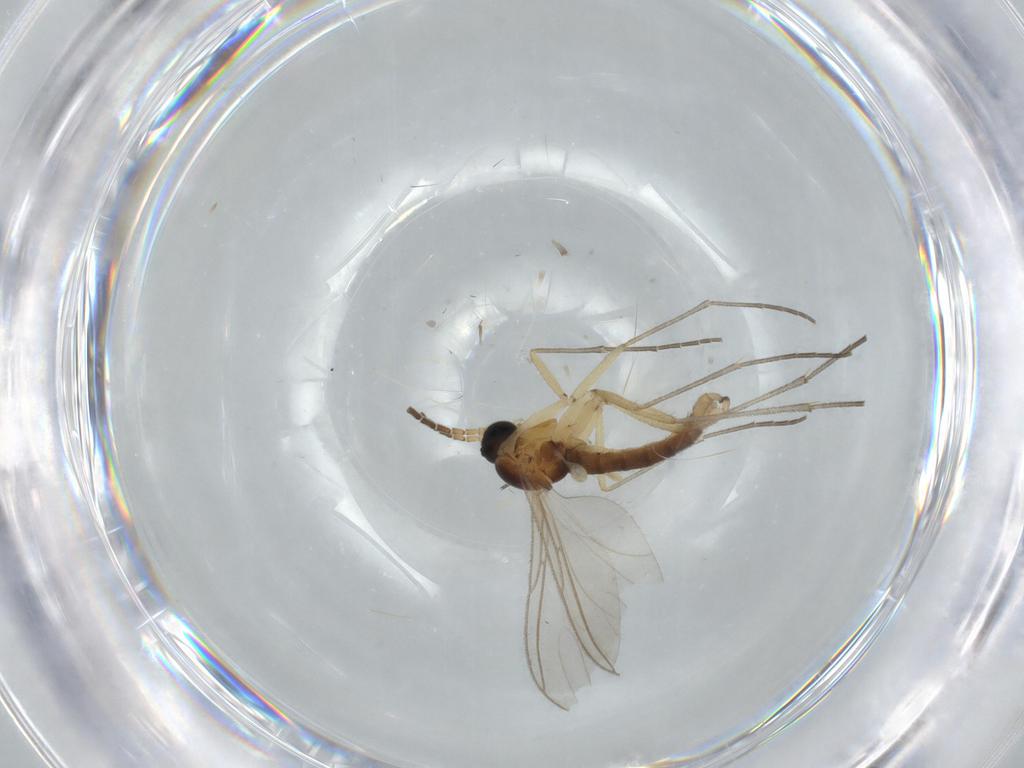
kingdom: Animalia
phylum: Arthropoda
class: Insecta
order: Diptera
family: Sciaridae
